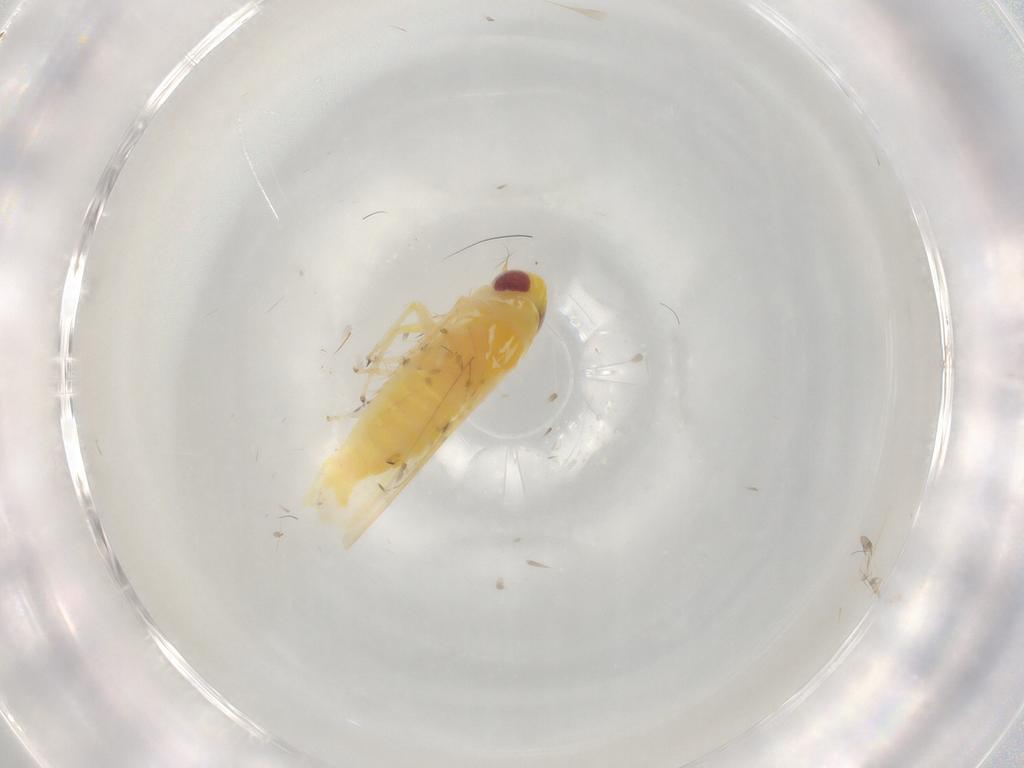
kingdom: Animalia
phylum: Arthropoda
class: Insecta
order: Hemiptera
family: Cicadellidae
